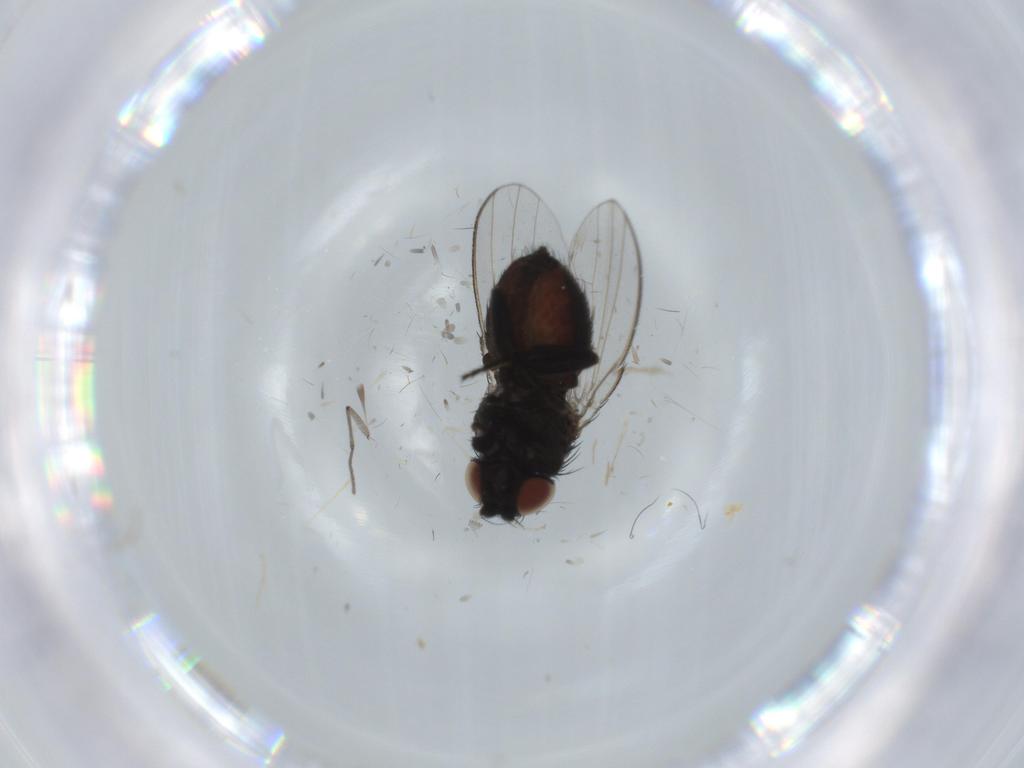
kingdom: Animalia
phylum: Arthropoda
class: Insecta
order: Diptera
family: Milichiidae
